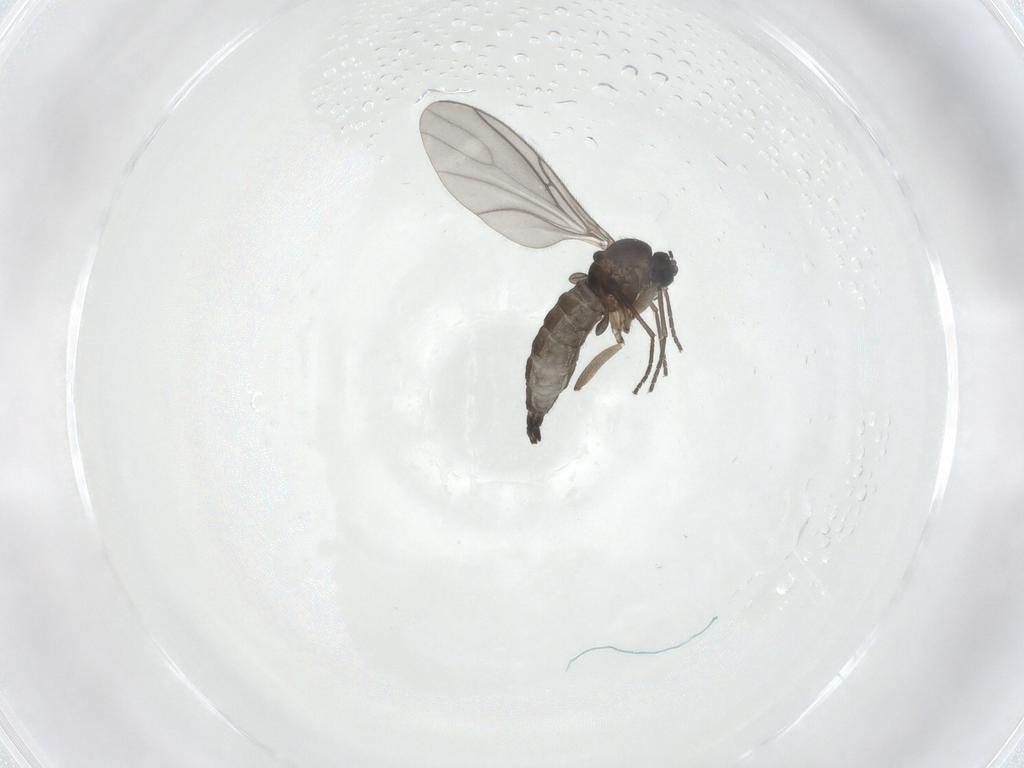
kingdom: Animalia
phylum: Arthropoda
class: Insecta
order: Diptera
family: Sciaridae
